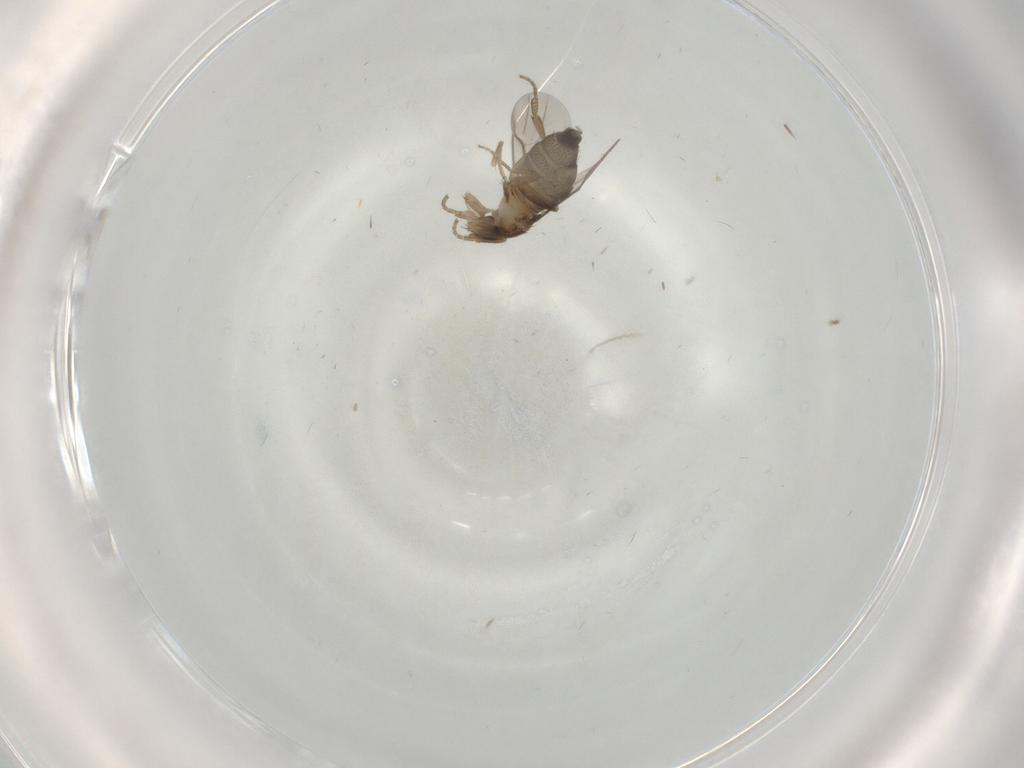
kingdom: Animalia
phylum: Arthropoda
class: Insecta
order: Diptera
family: Phoridae
